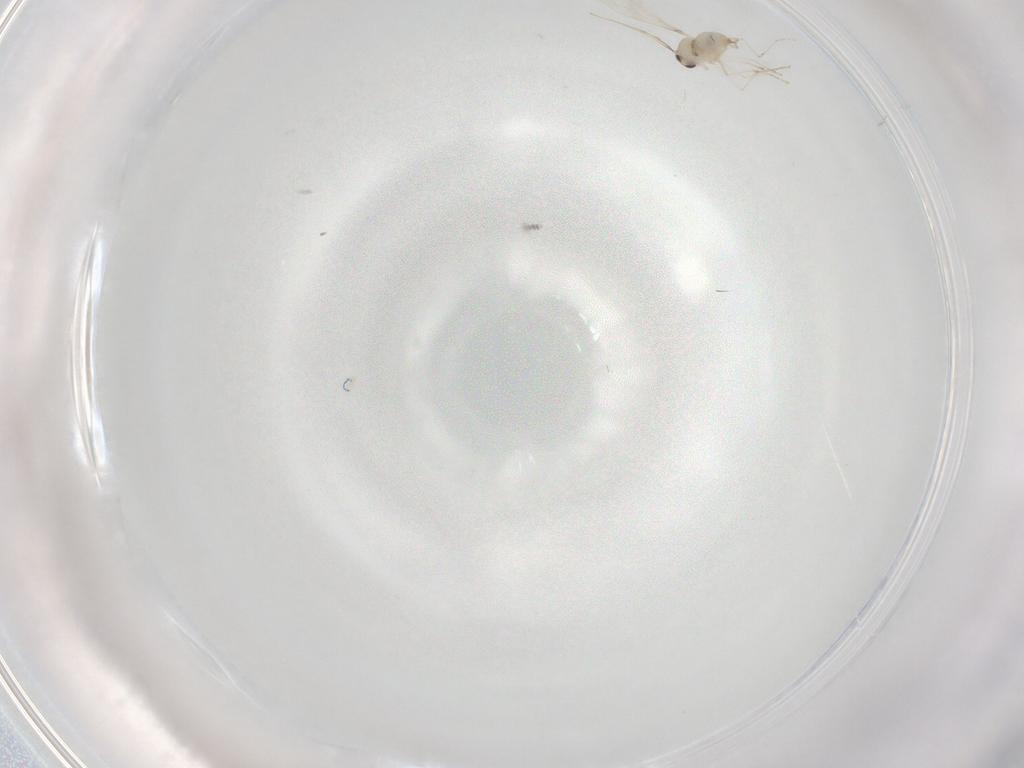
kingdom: Animalia
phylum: Arthropoda
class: Insecta
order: Diptera
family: Cecidomyiidae
